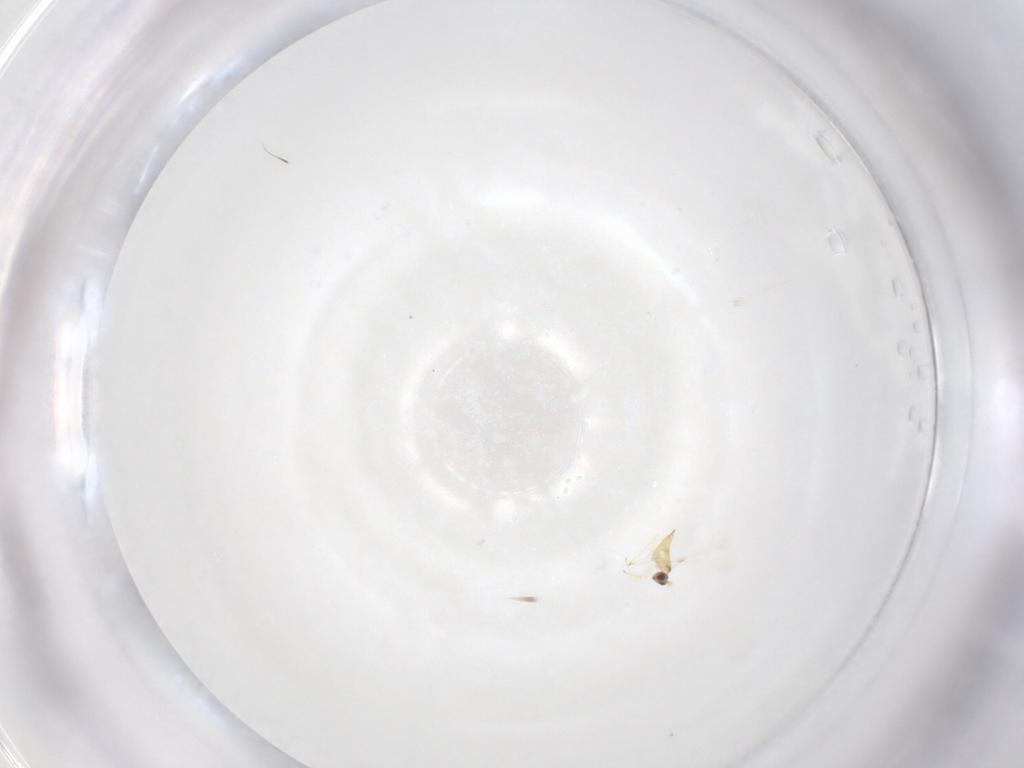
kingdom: Animalia
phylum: Arthropoda
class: Insecta
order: Hymenoptera
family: Mymaridae
